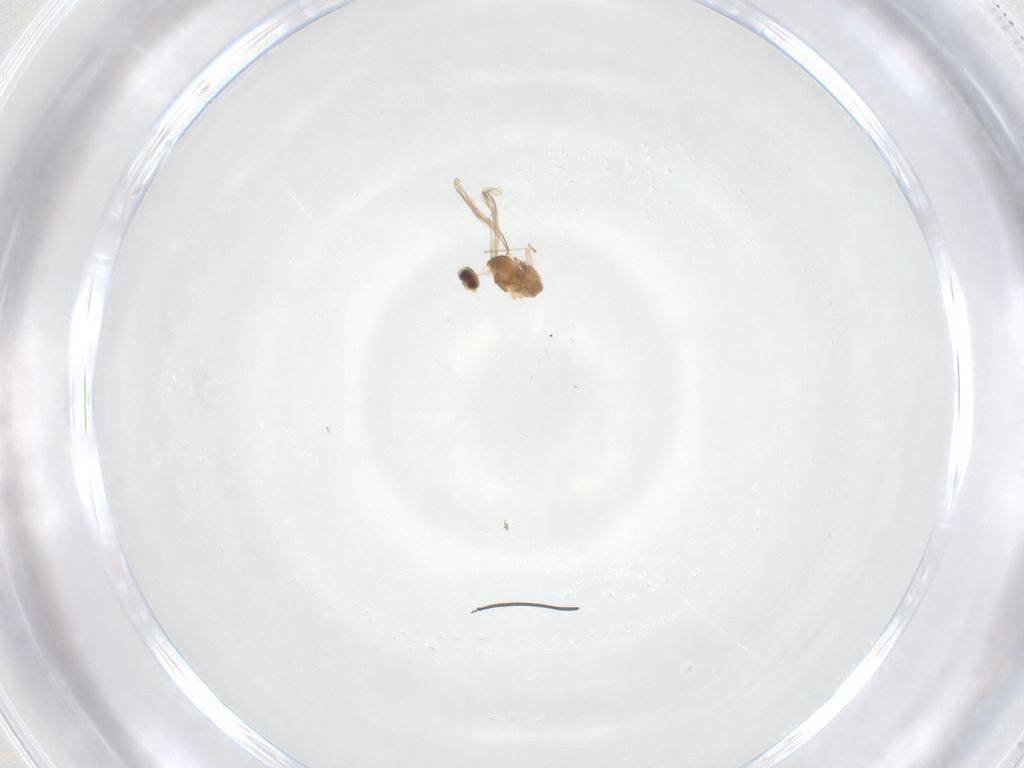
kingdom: Animalia
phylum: Arthropoda
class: Insecta
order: Diptera
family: Cecidomyiidae
